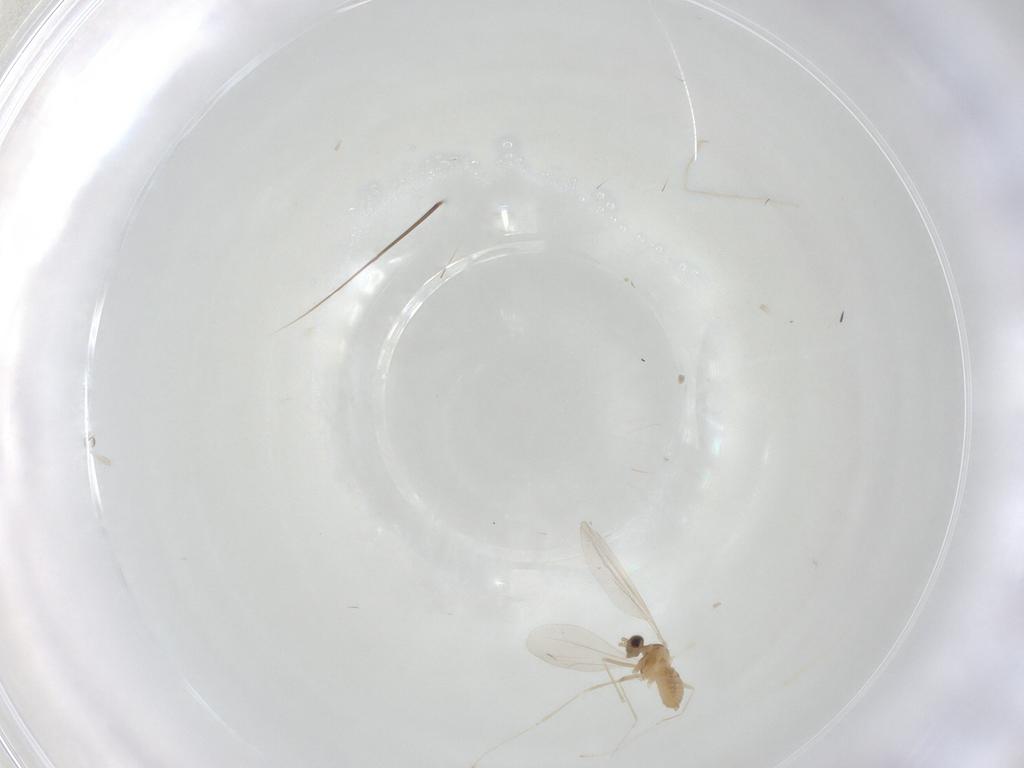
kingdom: Animalia
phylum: Arthropoda
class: Insecta
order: Diptera
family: Cecidomyiidae
